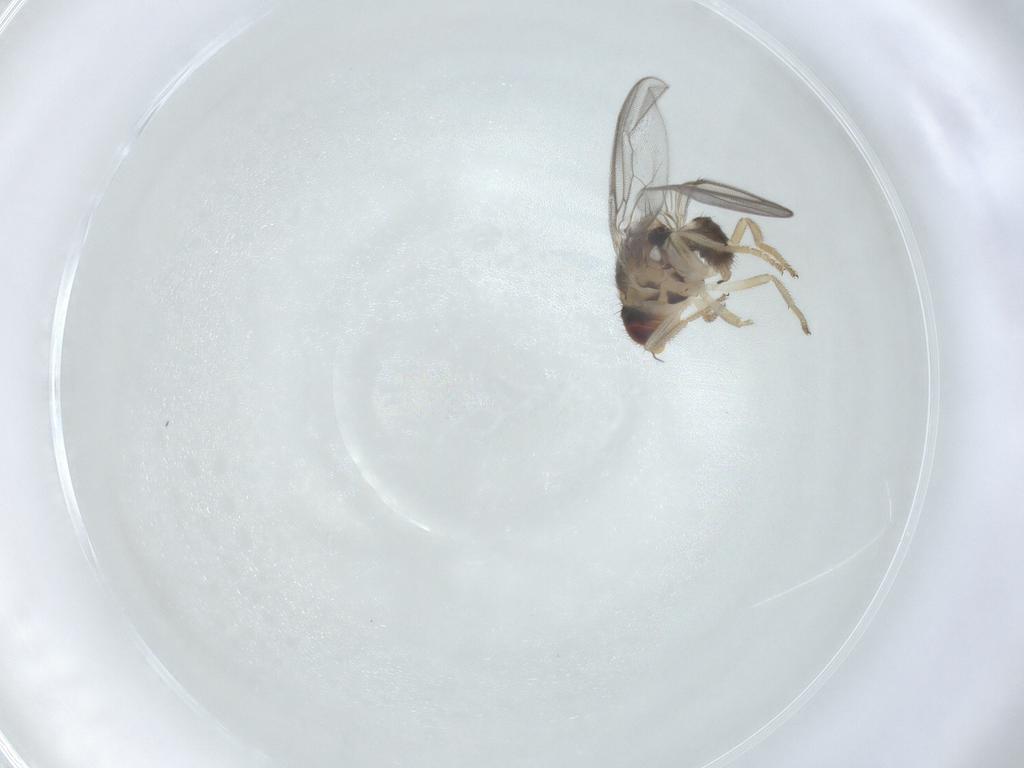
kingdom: Animalia
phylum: Arthropoda
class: Insecta
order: Diptera
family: Chloropidae
